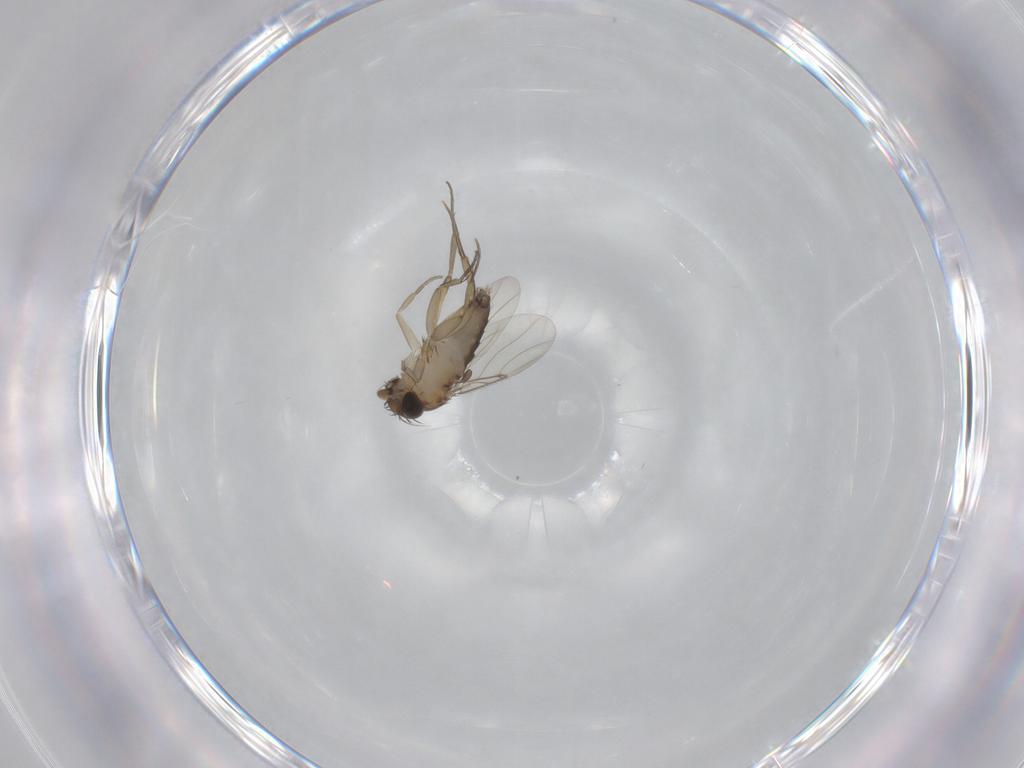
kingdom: Animalia
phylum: Arthropoda
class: Insecta
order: Diptera
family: Phoridae
